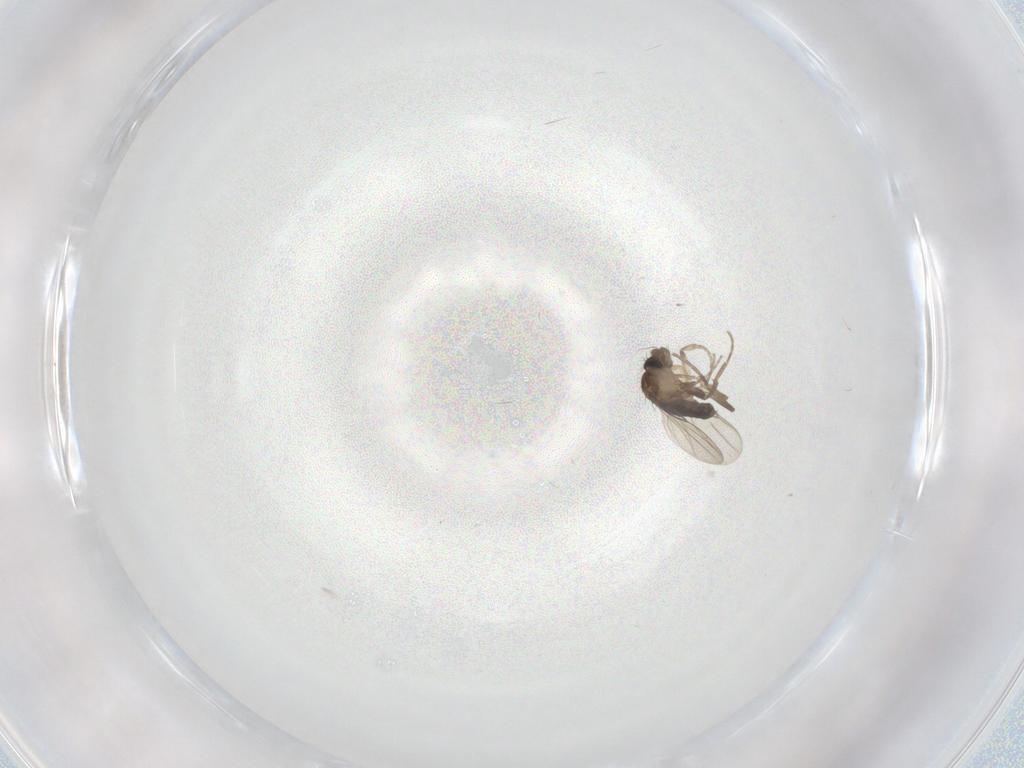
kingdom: Animalia
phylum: Arthropoda
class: Insecta
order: Diptera
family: Phoridae
